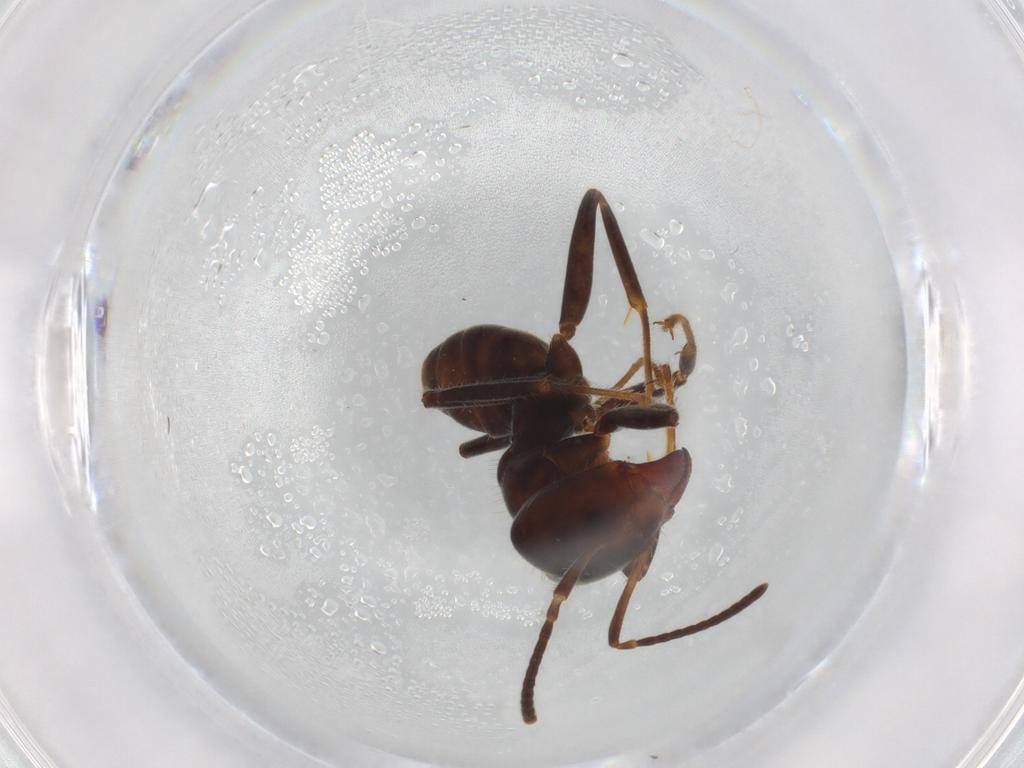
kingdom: Animalia
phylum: Arthropoda
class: Insecta
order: Hymenoptera
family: Formicidae
